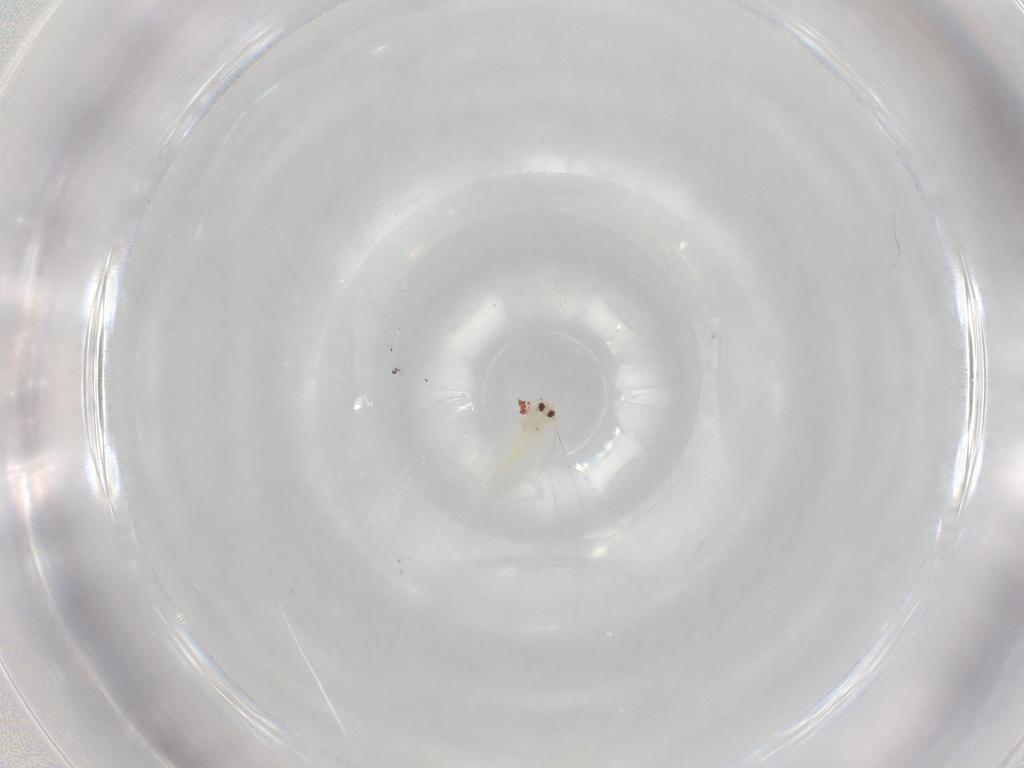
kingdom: Animalia
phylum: Arthropoda
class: Insecta
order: Hemiptera
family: Aleyrodidae
